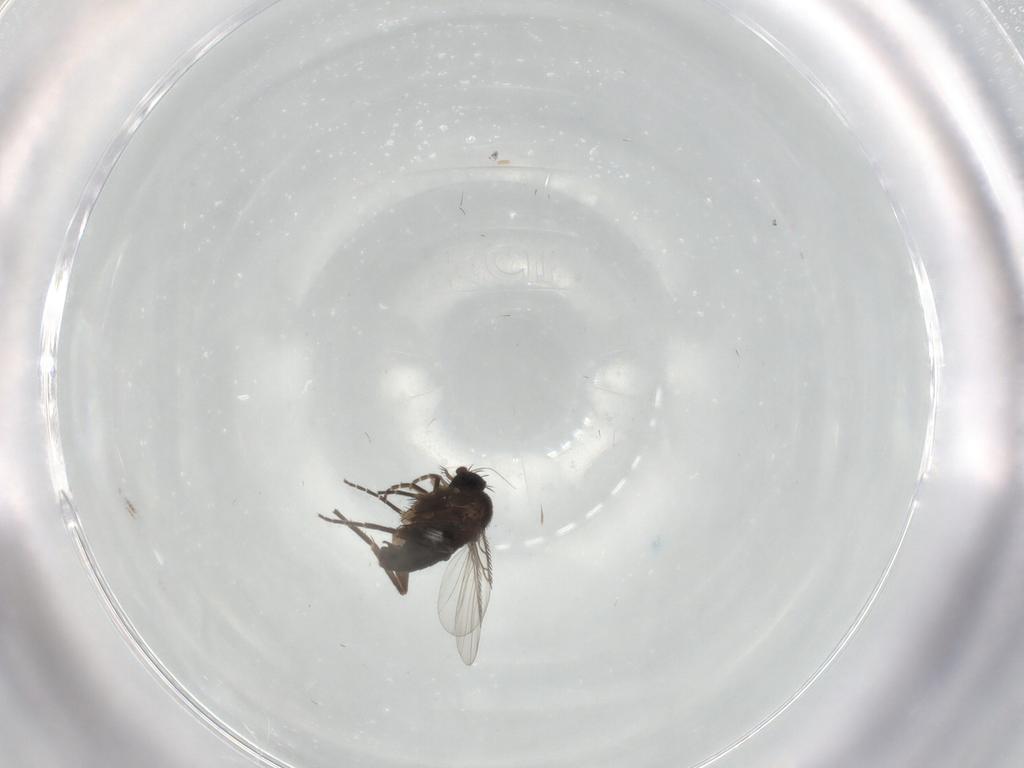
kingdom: Animalia
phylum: Arthropoda
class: Insecta
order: Diptera
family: Phoridae
